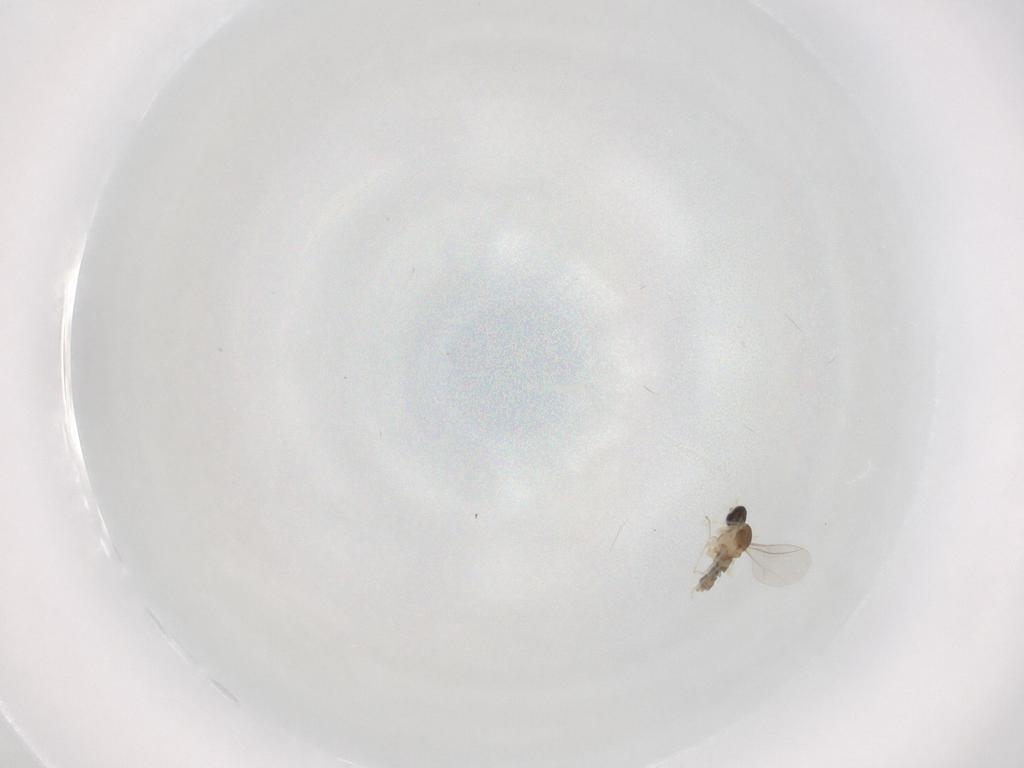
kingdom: Animalia
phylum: Arthropoda
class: Insecta
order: Diptera
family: Cecidomyiidae
